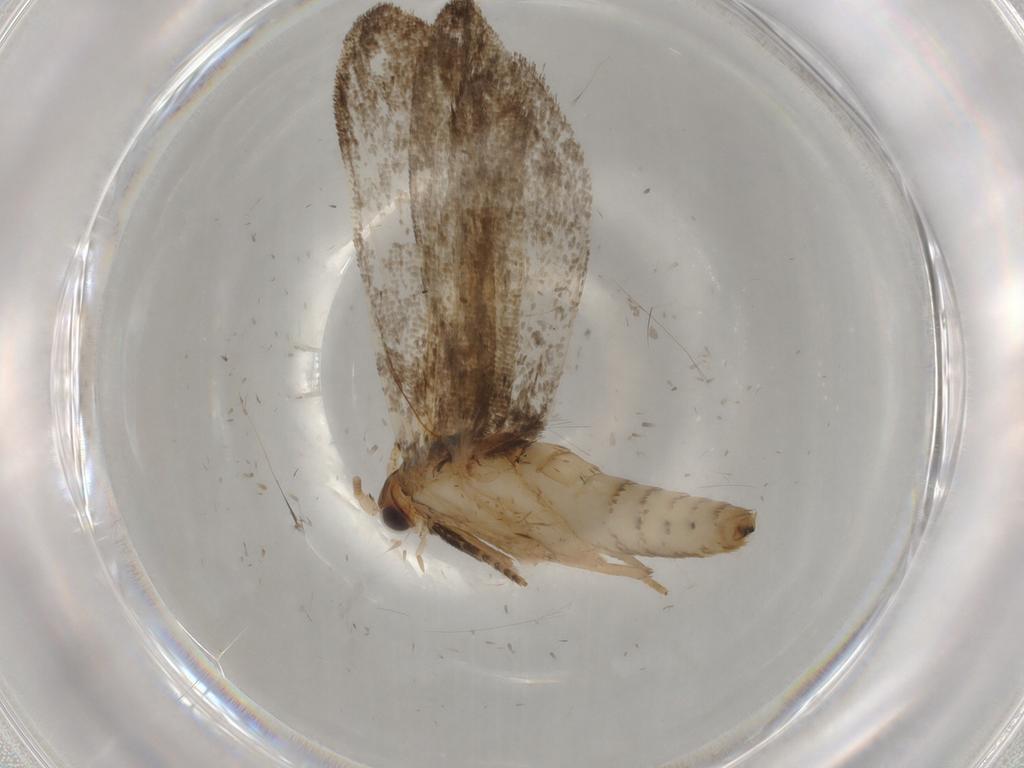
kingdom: Animalia
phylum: Arthropoda
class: Insecta
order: Lepidoptera
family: Tineidae
